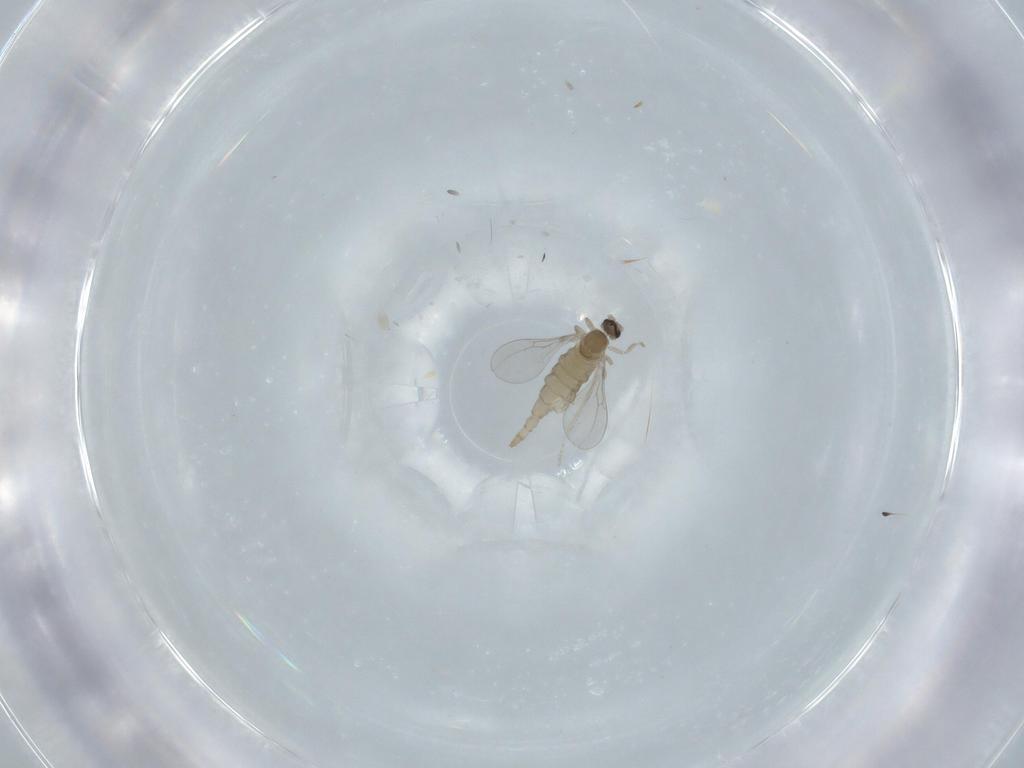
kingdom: Animalia
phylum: Arthropoda
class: Insecta
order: Diptera
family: Cecidomyiidae
